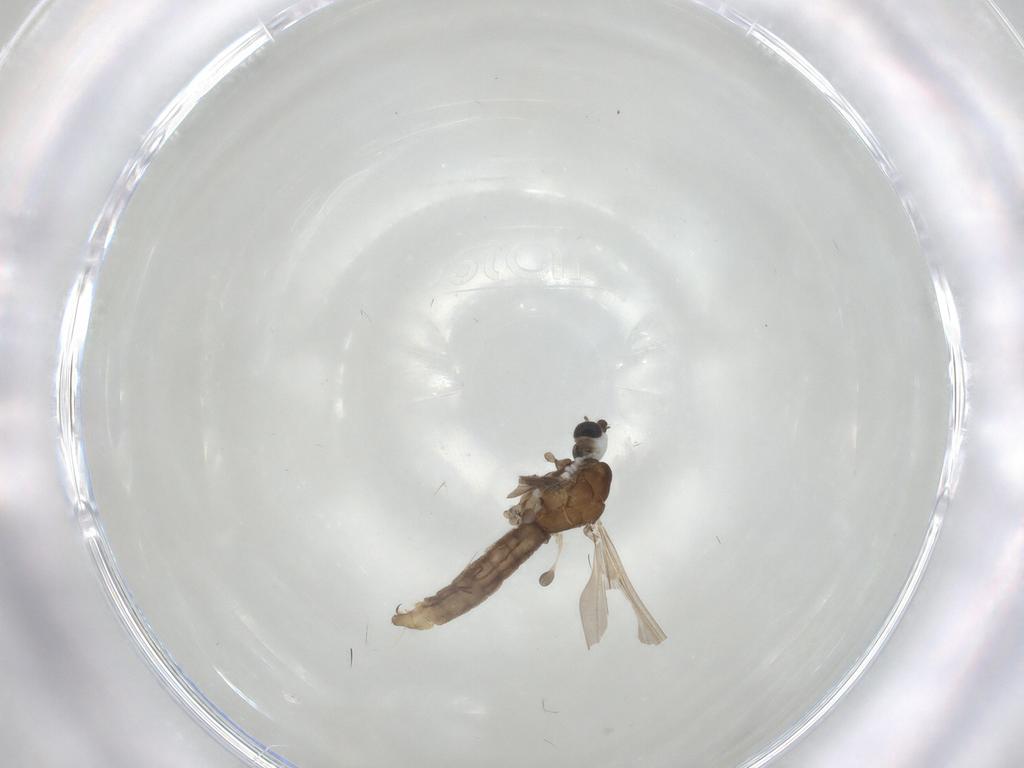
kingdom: Animalia
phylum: Arthropoda
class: Insecta
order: Diptera
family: Limoniidae
